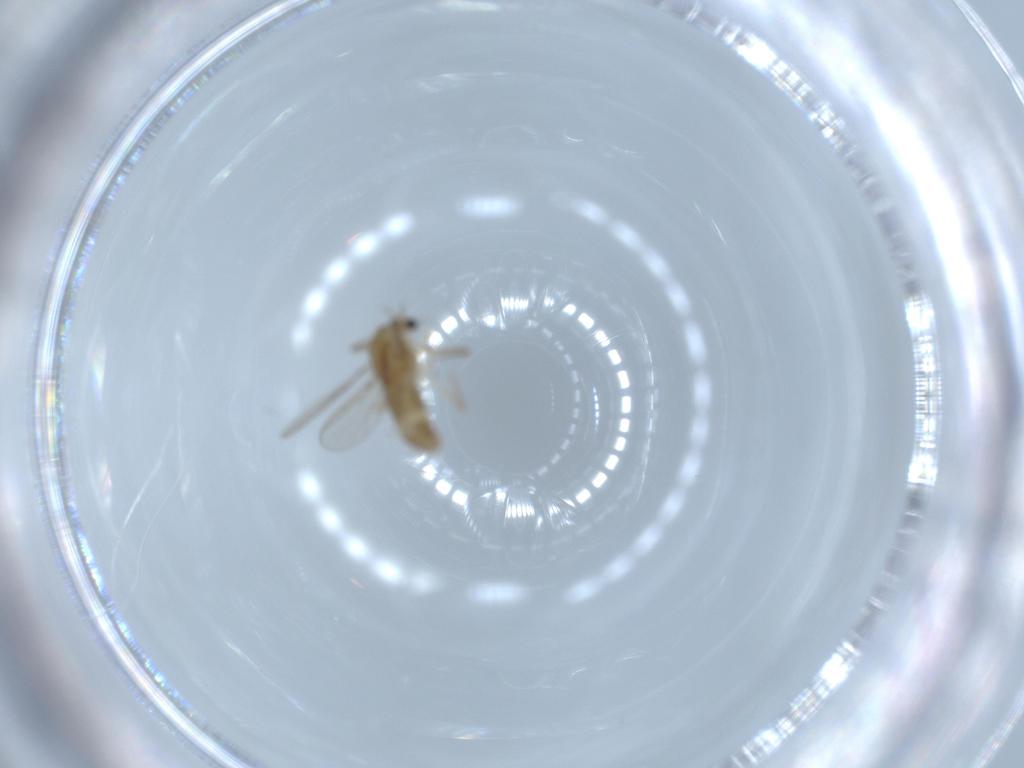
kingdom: Animalia
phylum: Arthropoda
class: Insecta
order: Diptera
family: Chironomidae
